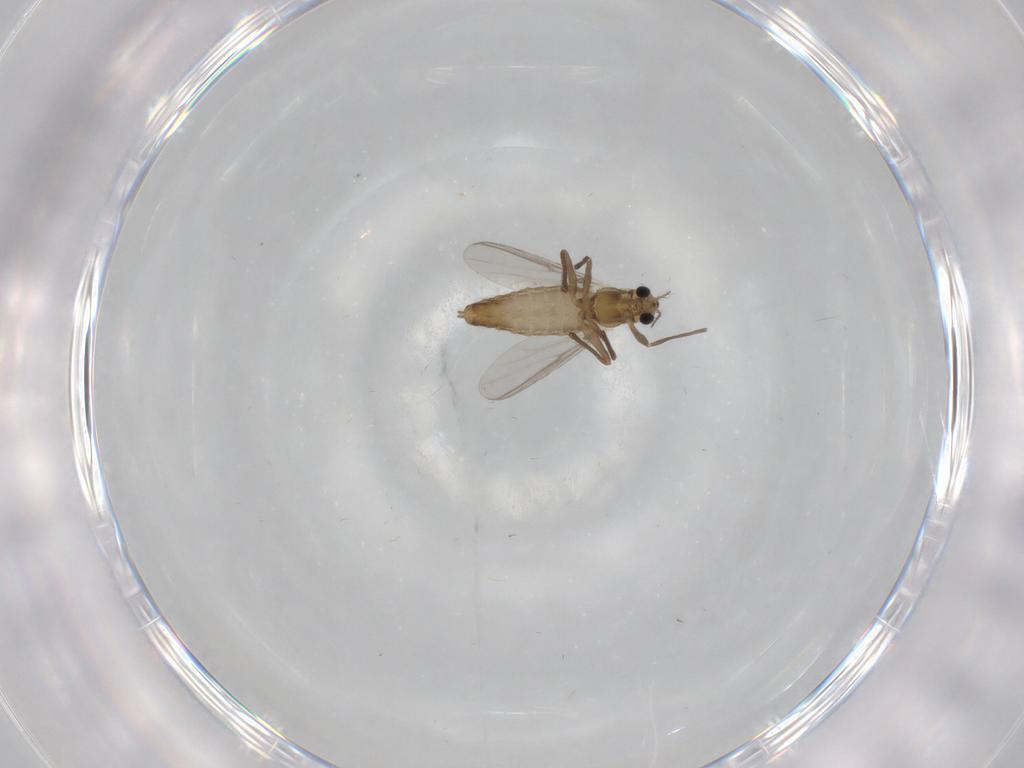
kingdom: Animalia
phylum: Arthropoda
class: Insecta
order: Diptera
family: Chironomidae
